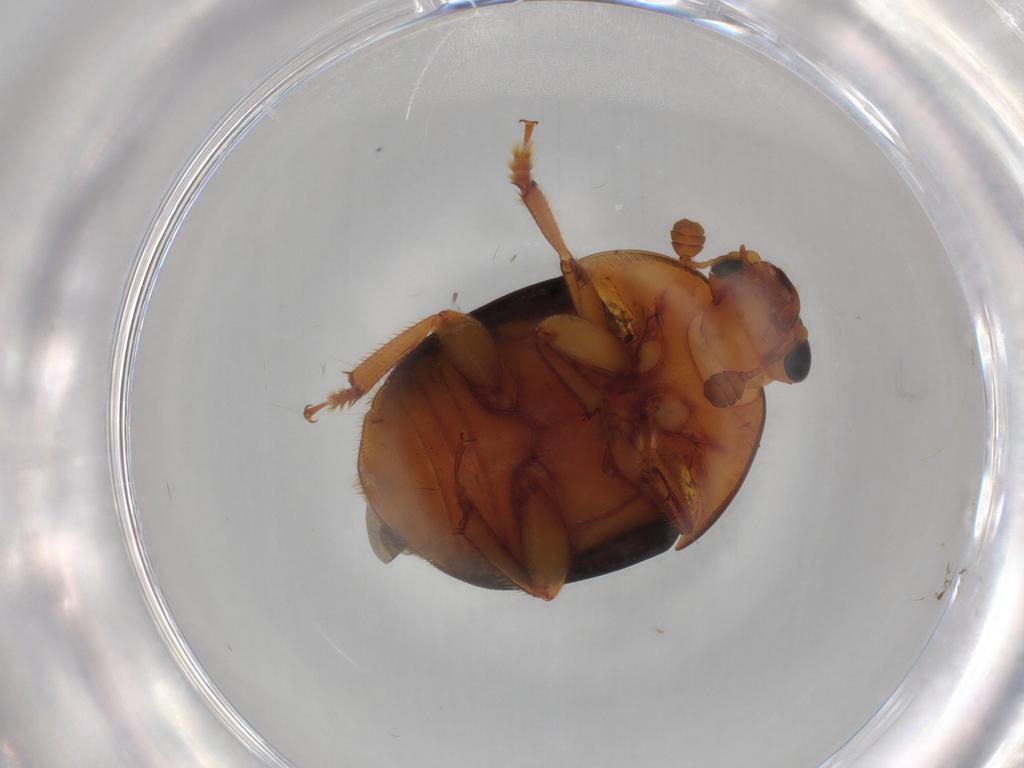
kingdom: Animalia
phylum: Arthropoda
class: Insecta
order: Coleoptera
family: Nitidulidae
